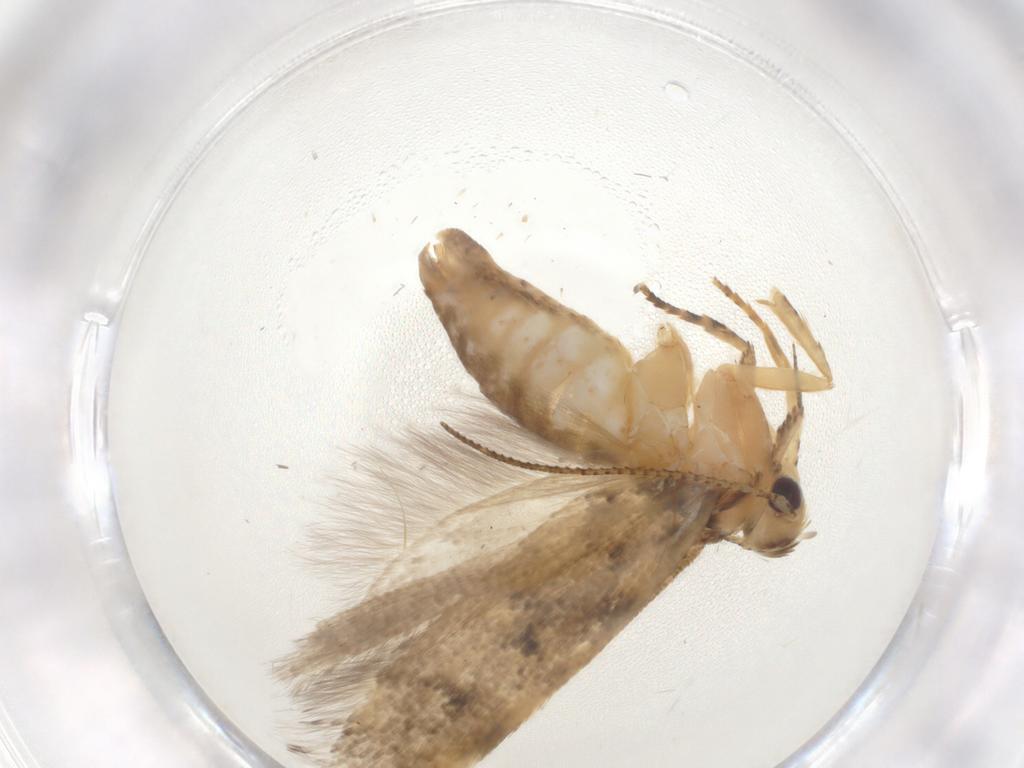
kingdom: Animalia
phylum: Arthropoda
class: Insecta
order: Lepidoptera
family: Gelechiidae
